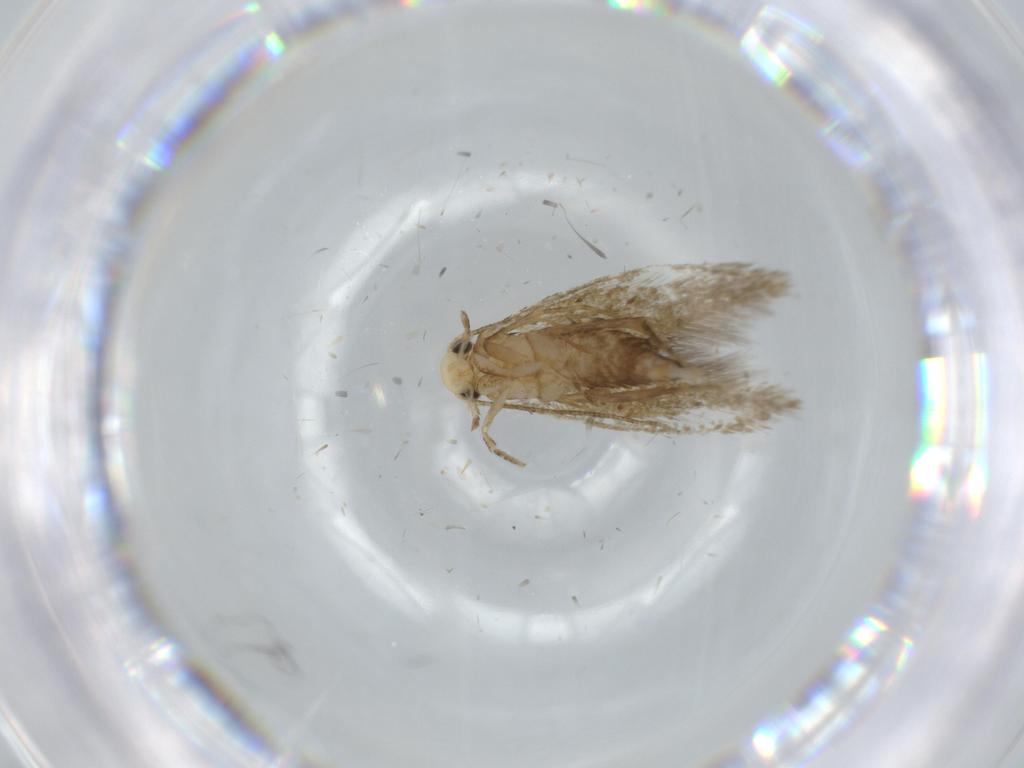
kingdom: Animalia
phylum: Arthropoda
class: Insecta
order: Lepidoptera
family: Tineidae
